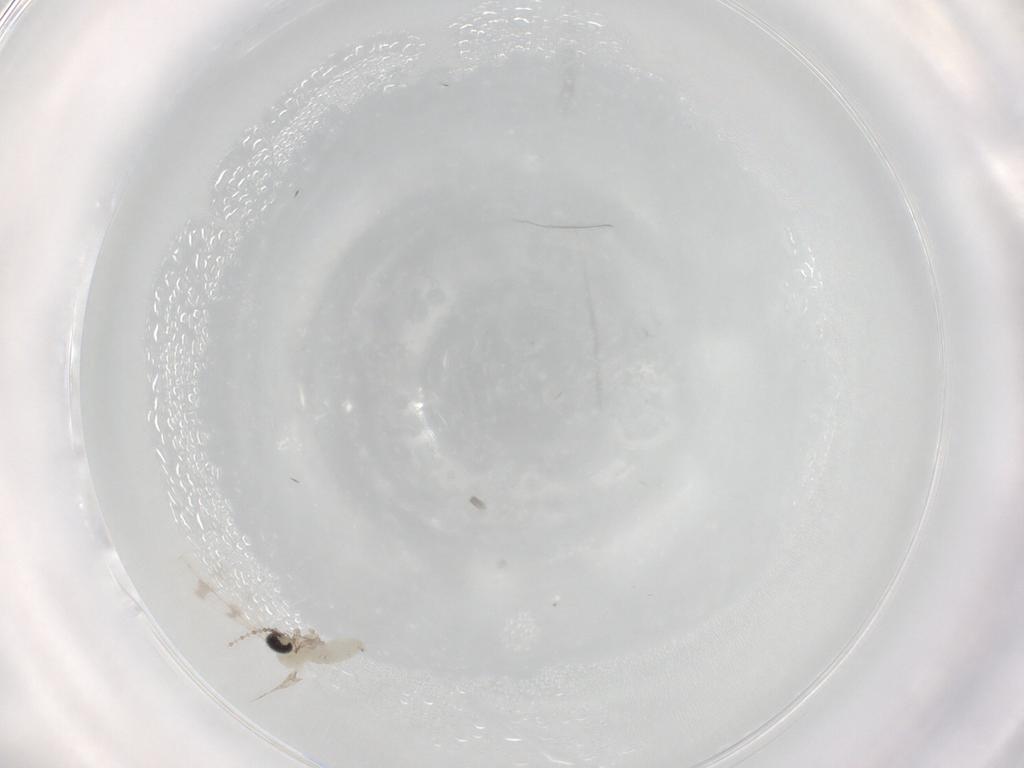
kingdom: Animalia
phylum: Arthropoda
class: Insecta
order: Diptera
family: Cecidomyiidae
